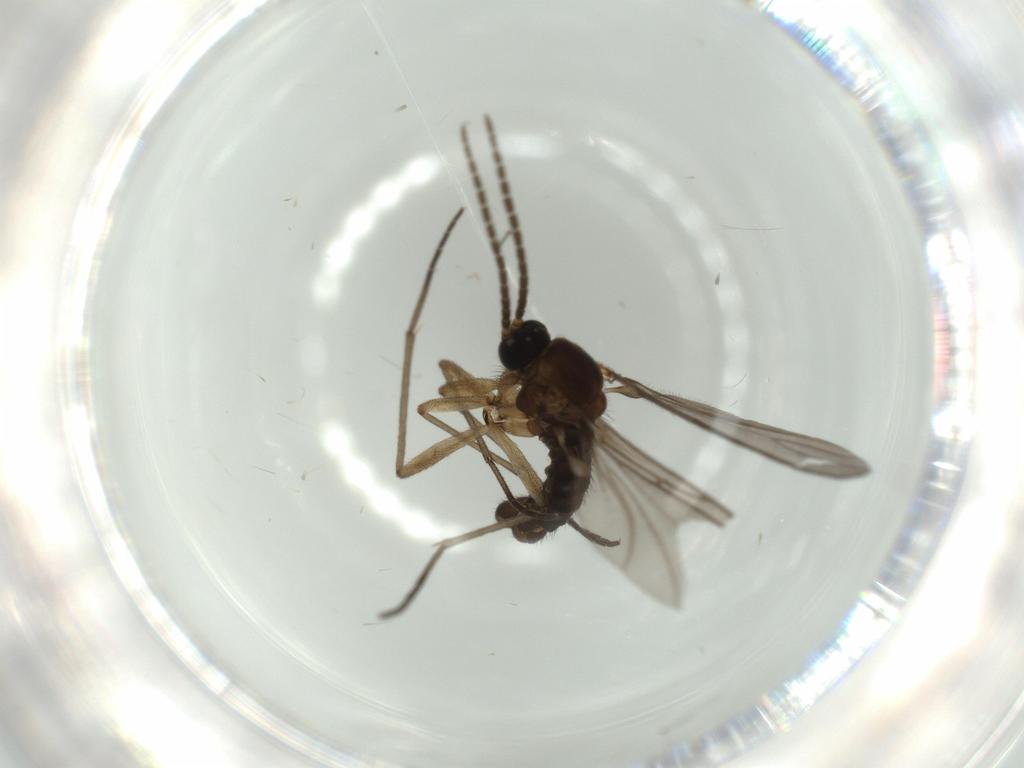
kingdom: Animalia
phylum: Arthropoda
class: Insecta
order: Diptera
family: Sciaridae
